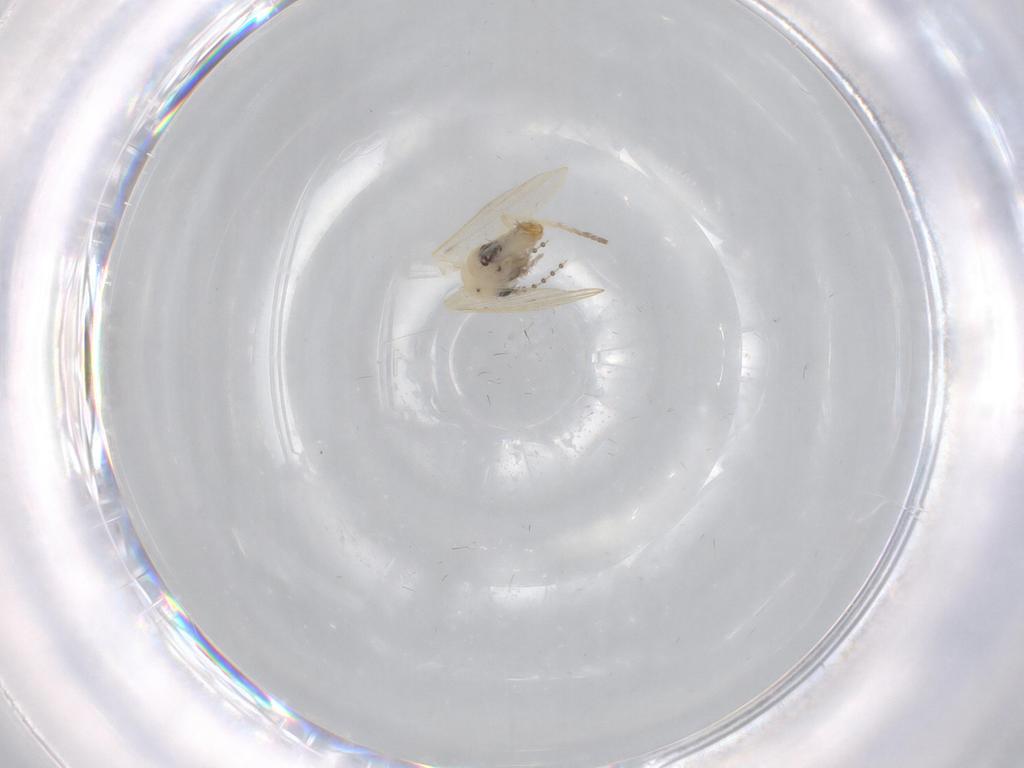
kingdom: Animalia
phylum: Arthropoda
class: Insecta
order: Diptera
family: Psychodidae
